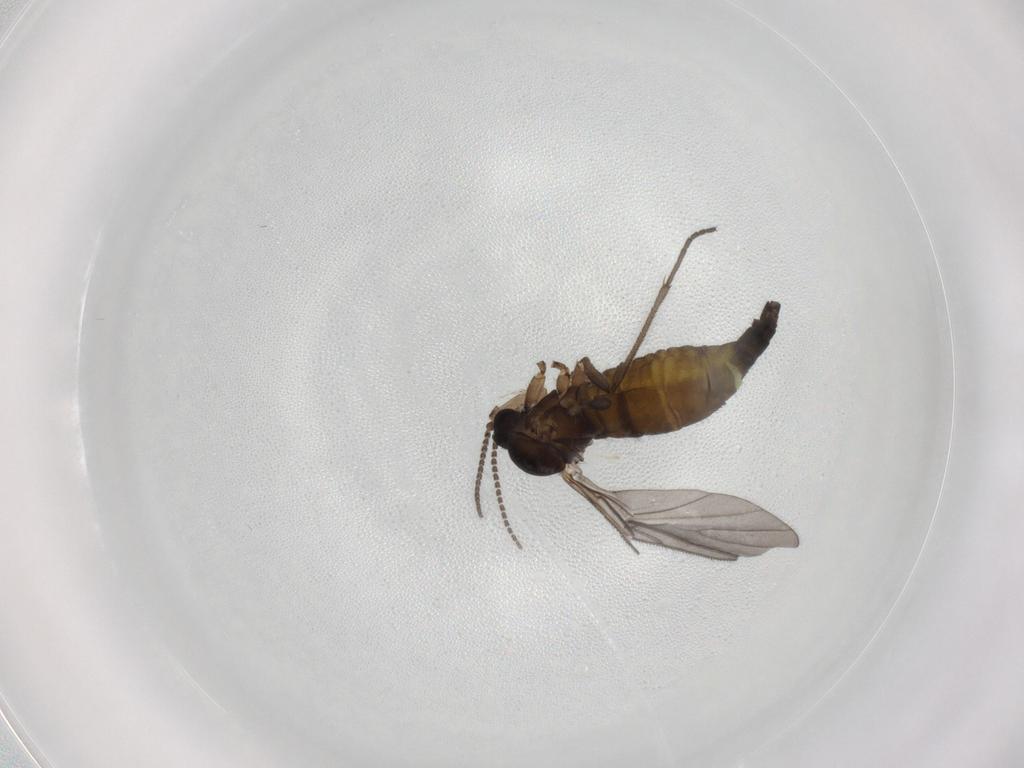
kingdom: Animalia
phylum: Arthropoda
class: Insecta
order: Diptera
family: Sciaridae
